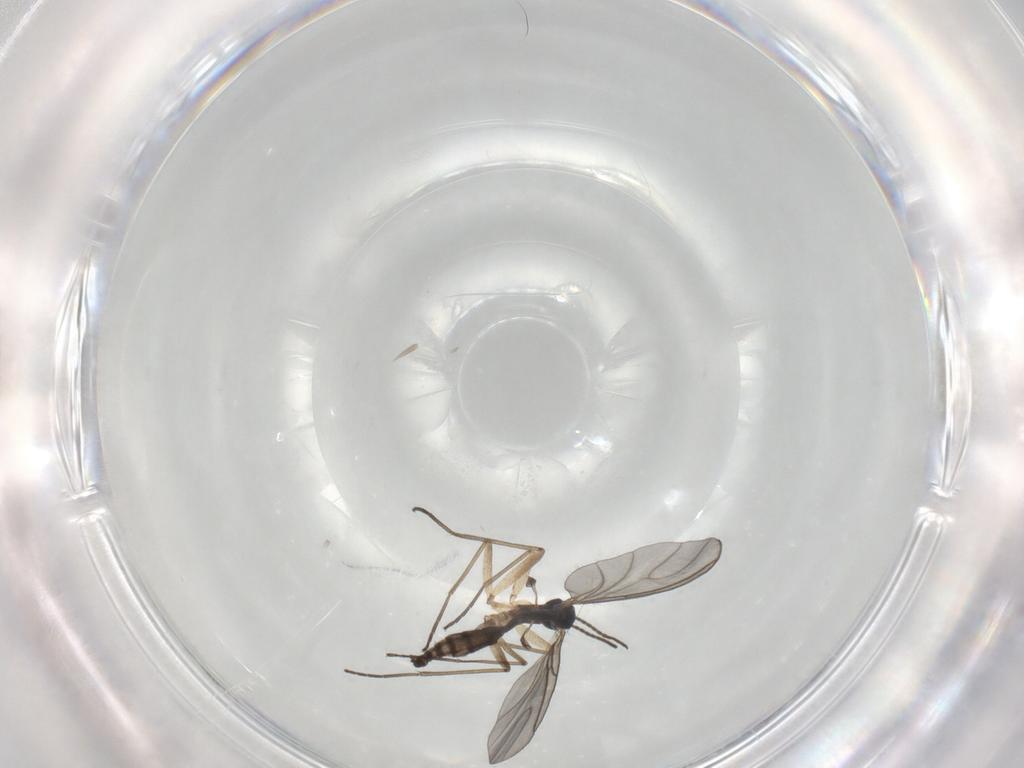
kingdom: Animalia
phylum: Arthropoda
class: Insecta
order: Diptera
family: Sciaridae
